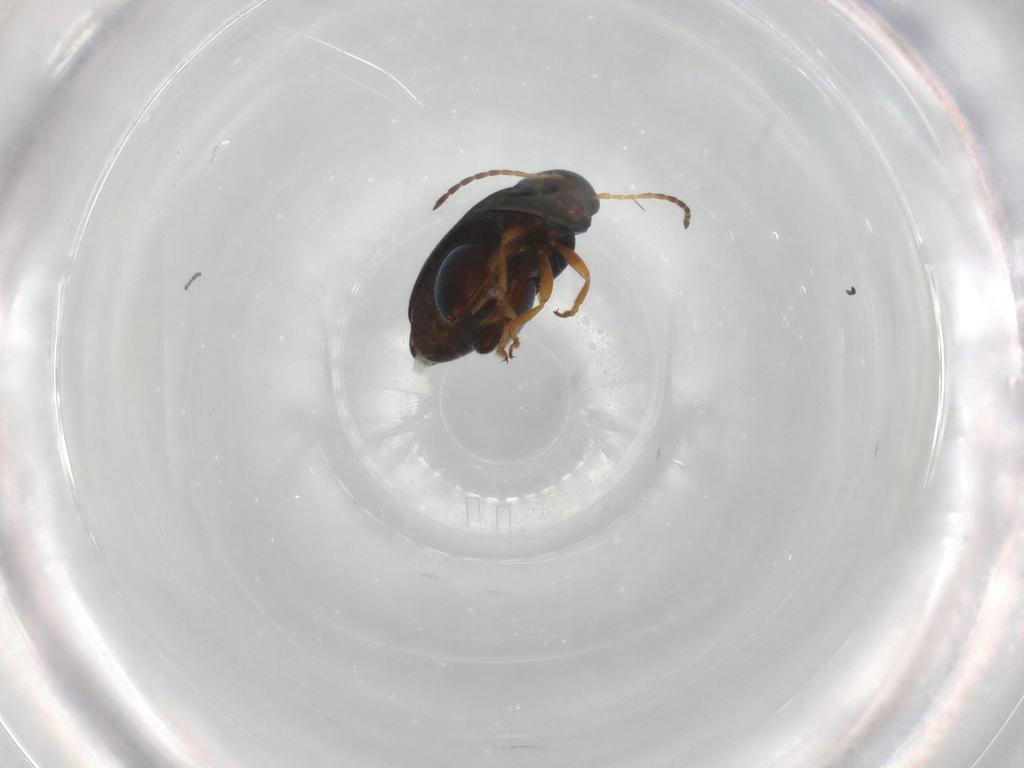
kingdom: Animalia
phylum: Arthropoda
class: Insecta
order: Coleoptera
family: Chrysomelidae
